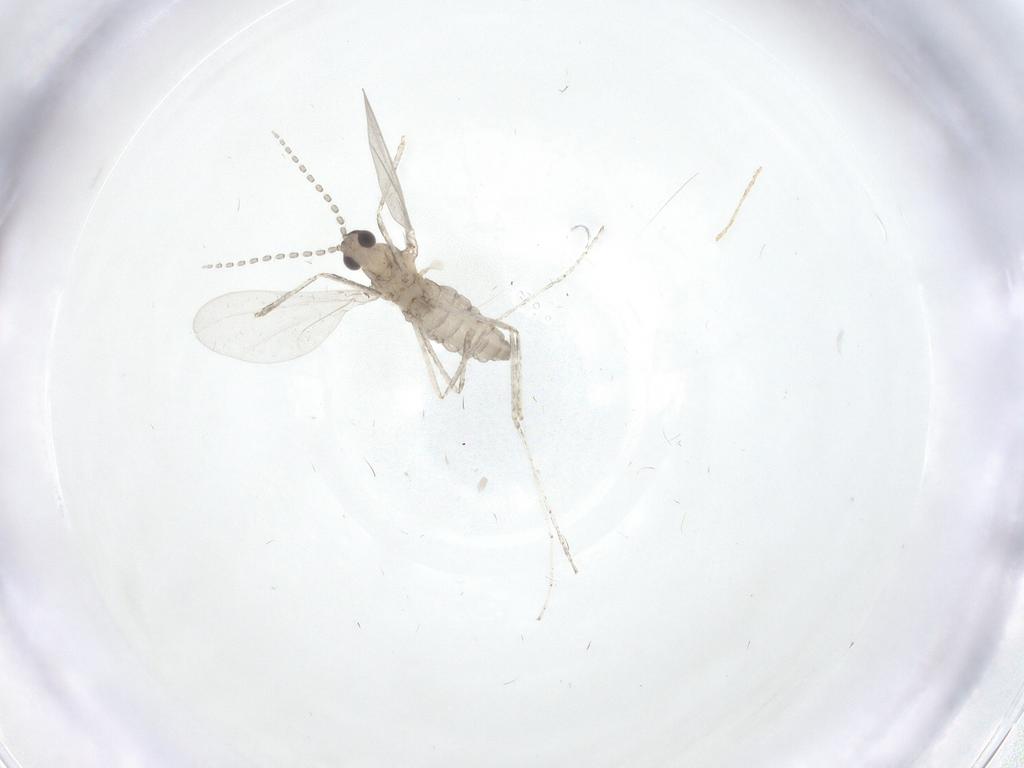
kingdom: Animalia
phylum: Arthropoda
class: Insecta
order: Diptera
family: Cecidomyiidae
